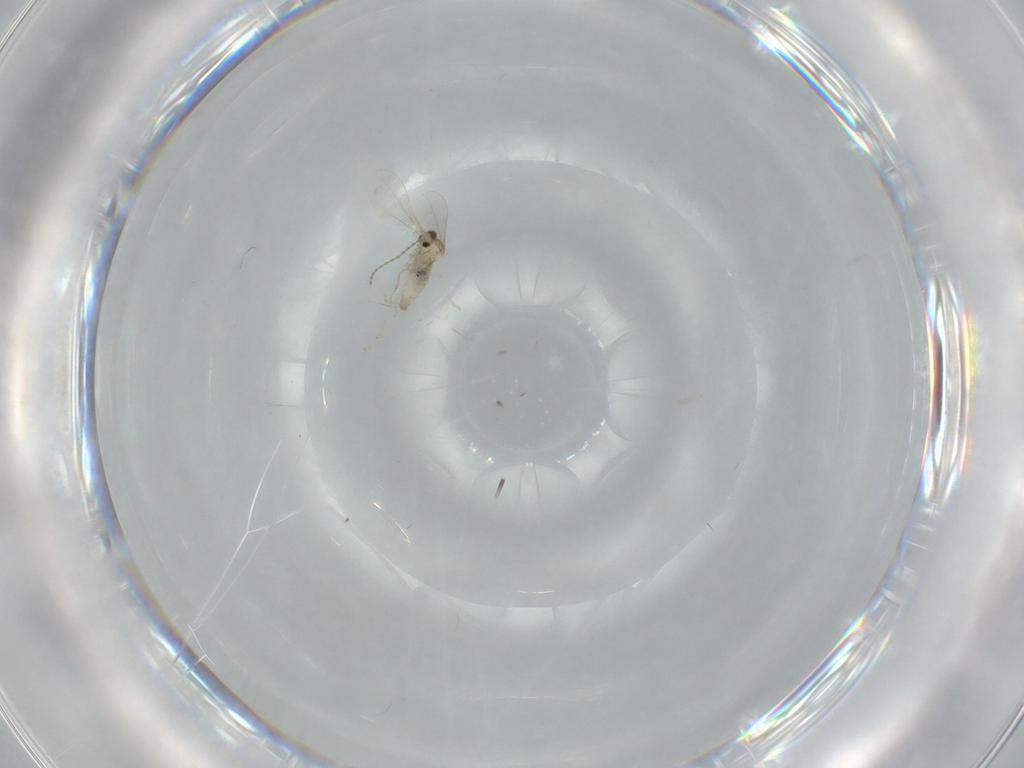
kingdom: Animalia
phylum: Arthropoda
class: Insecta
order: Diptera
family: Cecidomyiidae
